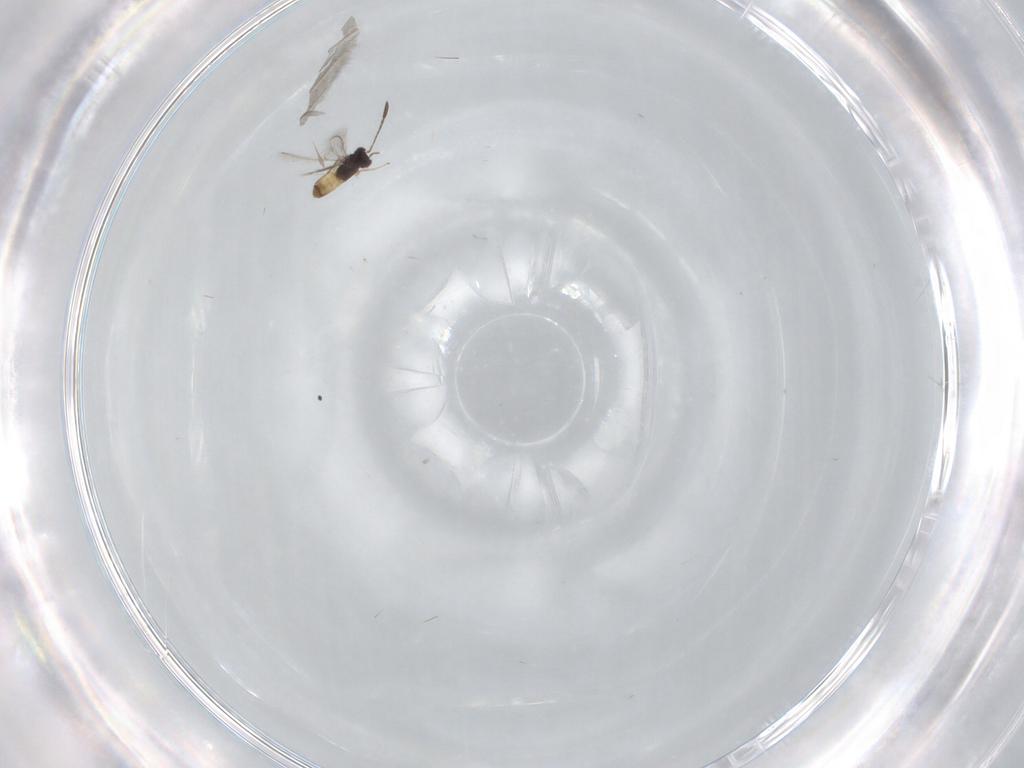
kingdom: Animalia
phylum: Arthropoda
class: Insecta
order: Hymenoptera
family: Mymaridae
